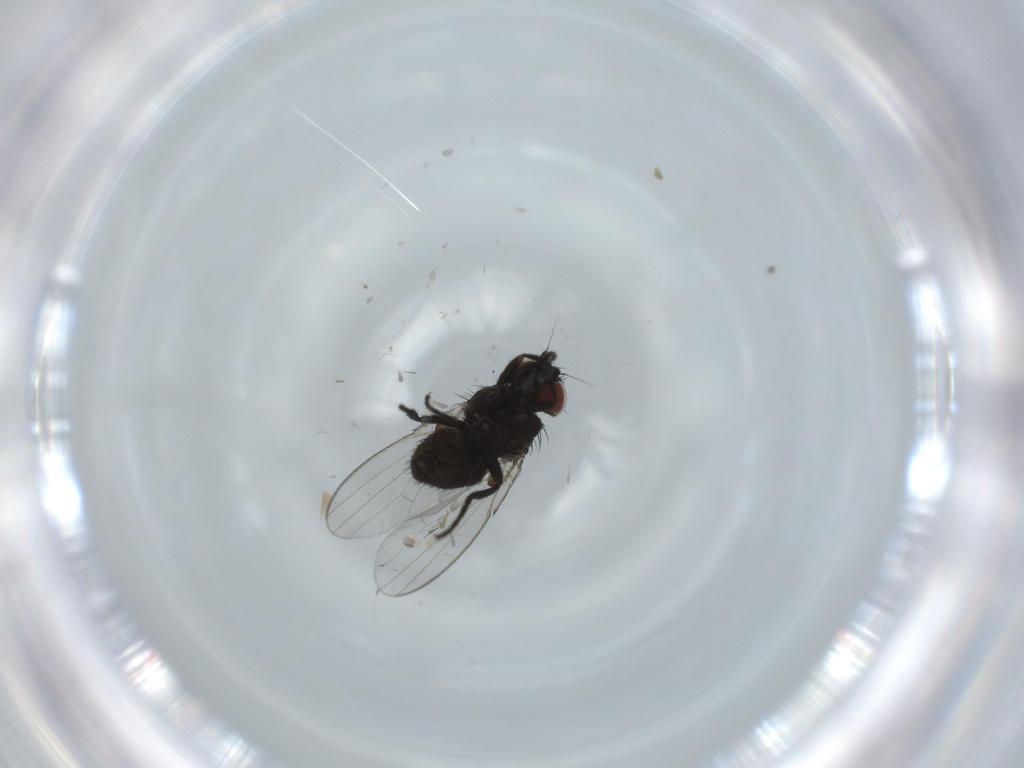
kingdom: Animalia
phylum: Arthropoda
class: Insecta
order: Diptera
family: Milichiidae
